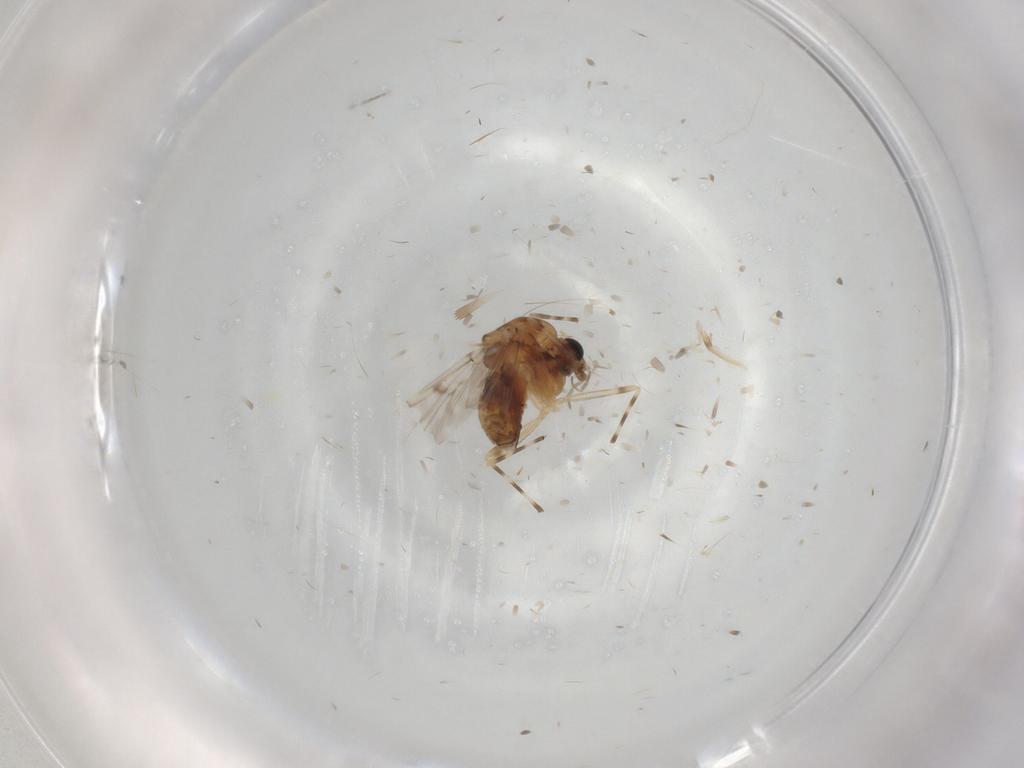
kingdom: Animalia
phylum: Arthropoda
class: Insecta
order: Diptera
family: Chironomidae
